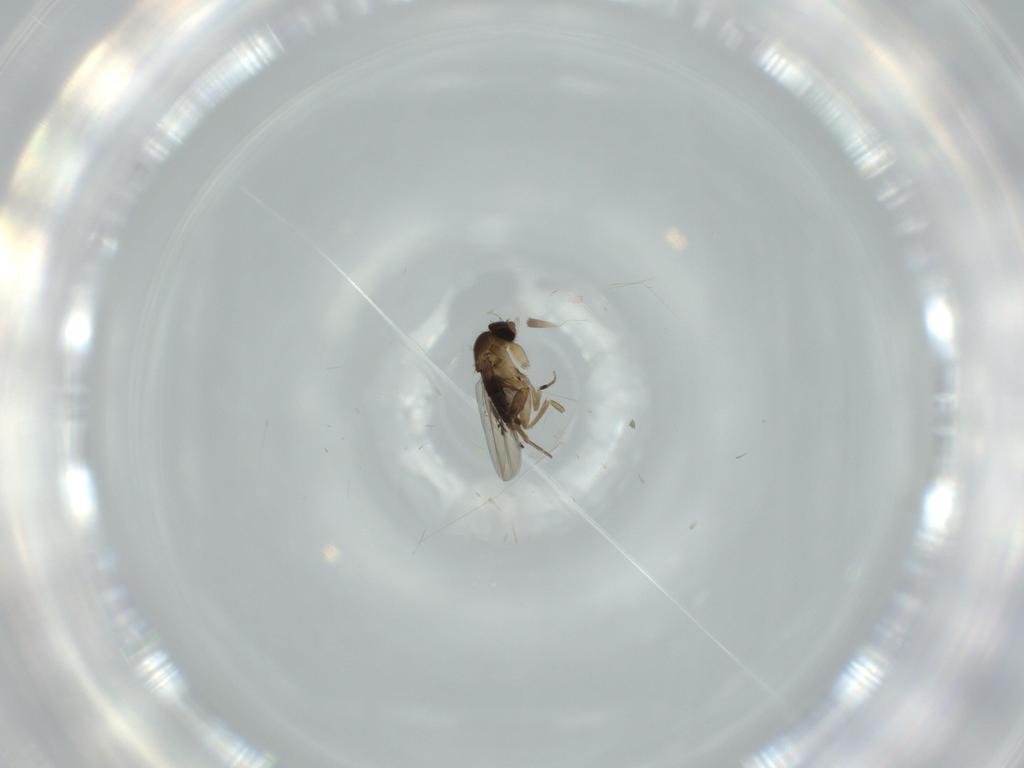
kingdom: Animalia
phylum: Arthropoda
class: Insecta
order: Diptera
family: Phoridae
